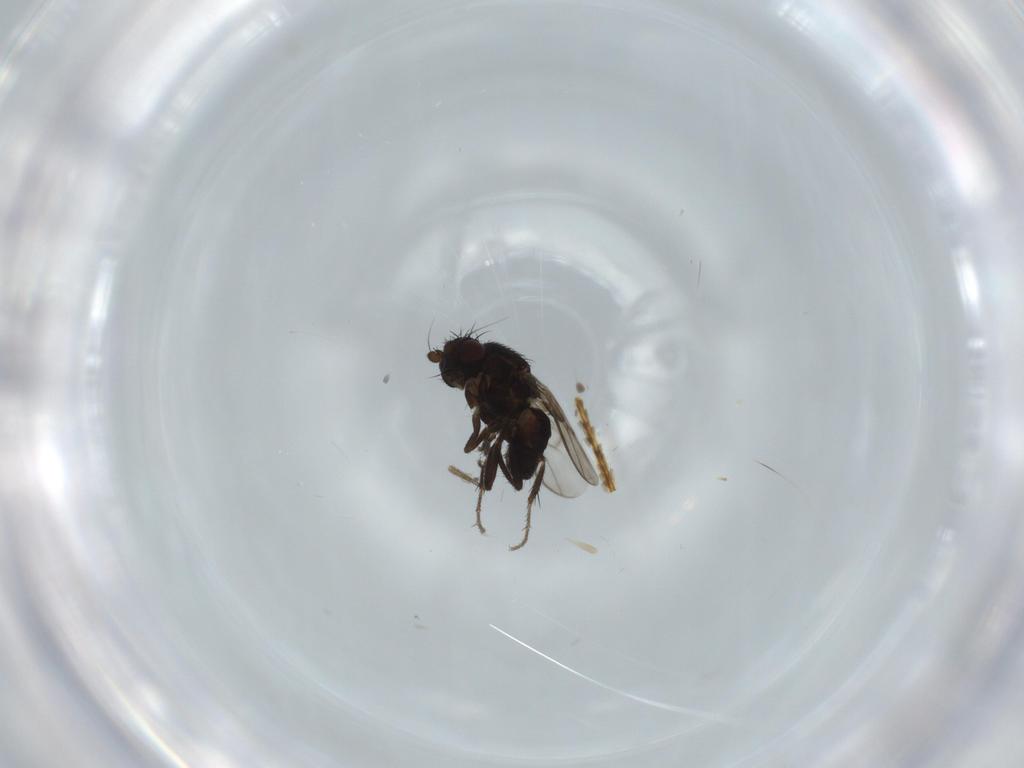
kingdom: Animalia
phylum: Arthropoda
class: Insecta
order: Diptera
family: Sphaeroceridae
